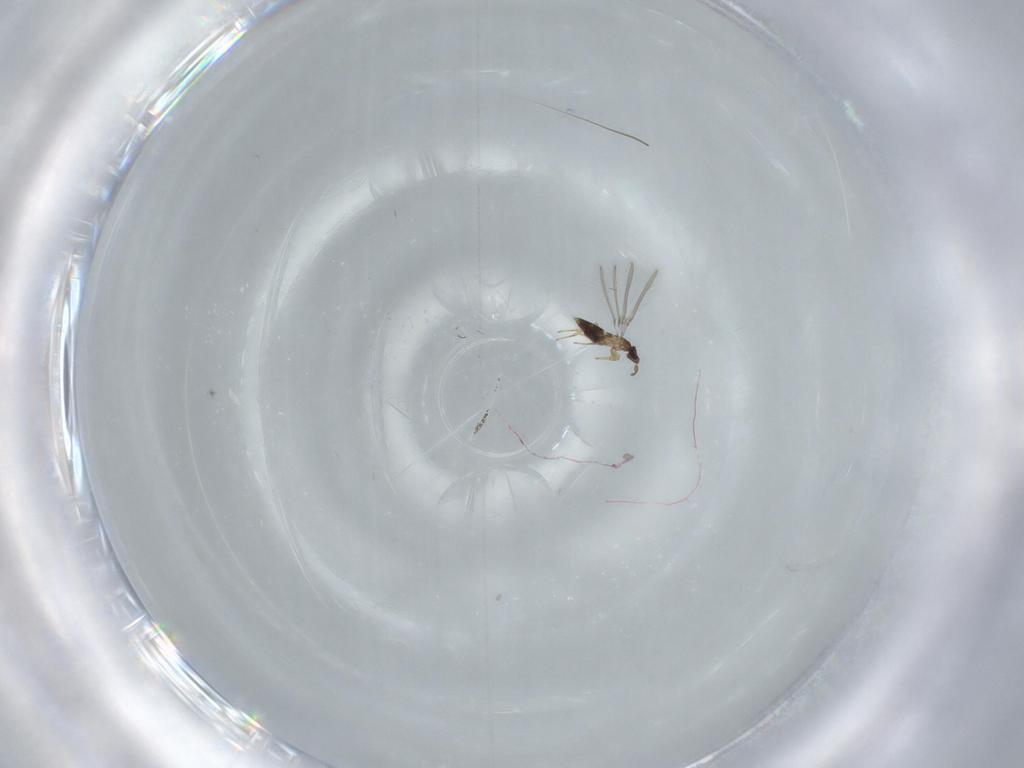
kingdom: Animalia
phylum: Arthropoda
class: Insecta
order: Hymenoptera
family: Mymaridae
